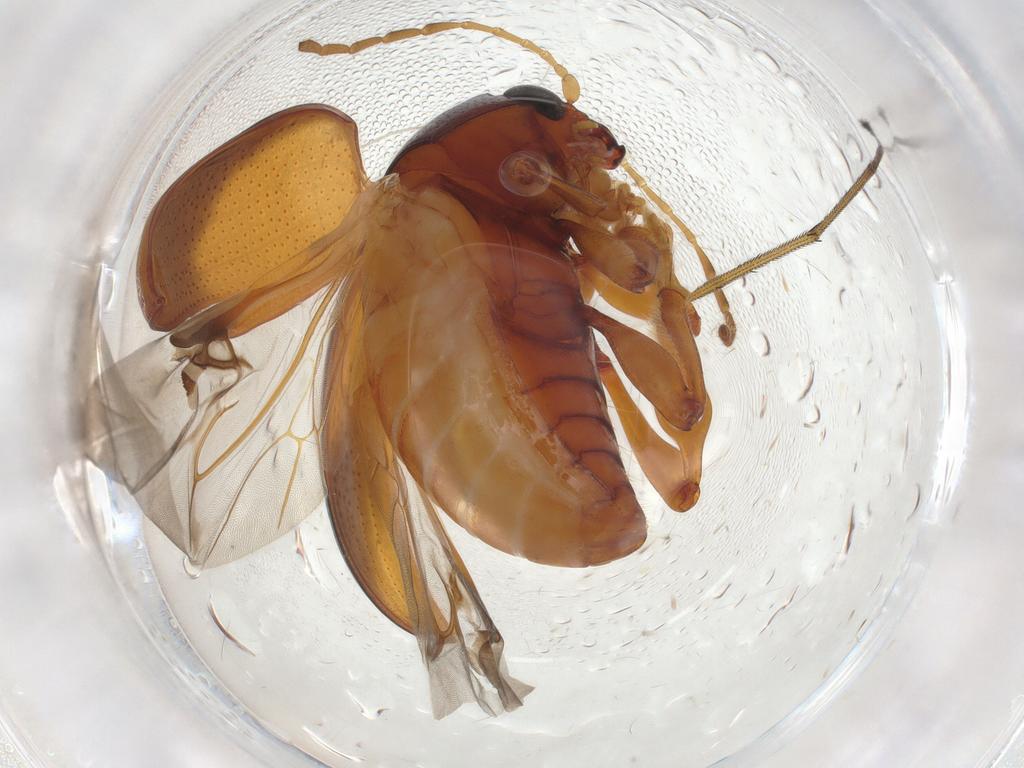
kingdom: Animalia
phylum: Arthropoda
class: Insecta
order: Coleoptera
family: Chrysomelidae
